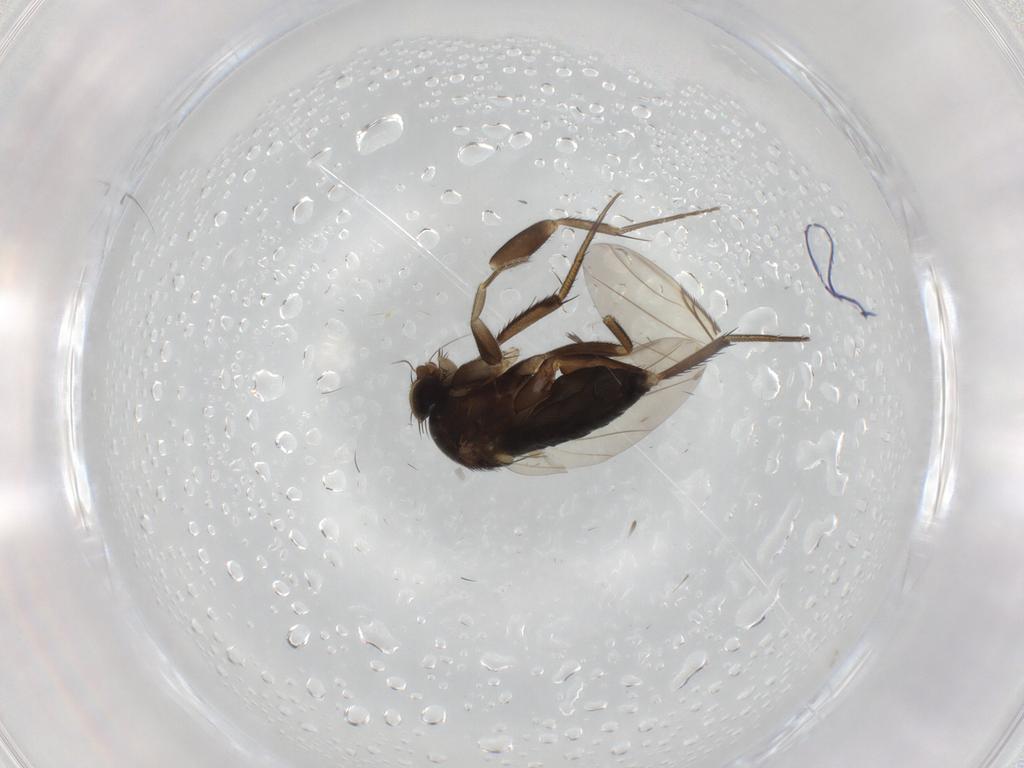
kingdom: Animalia
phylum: Arthropoda
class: Insecta
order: Diptera
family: Phoridae
